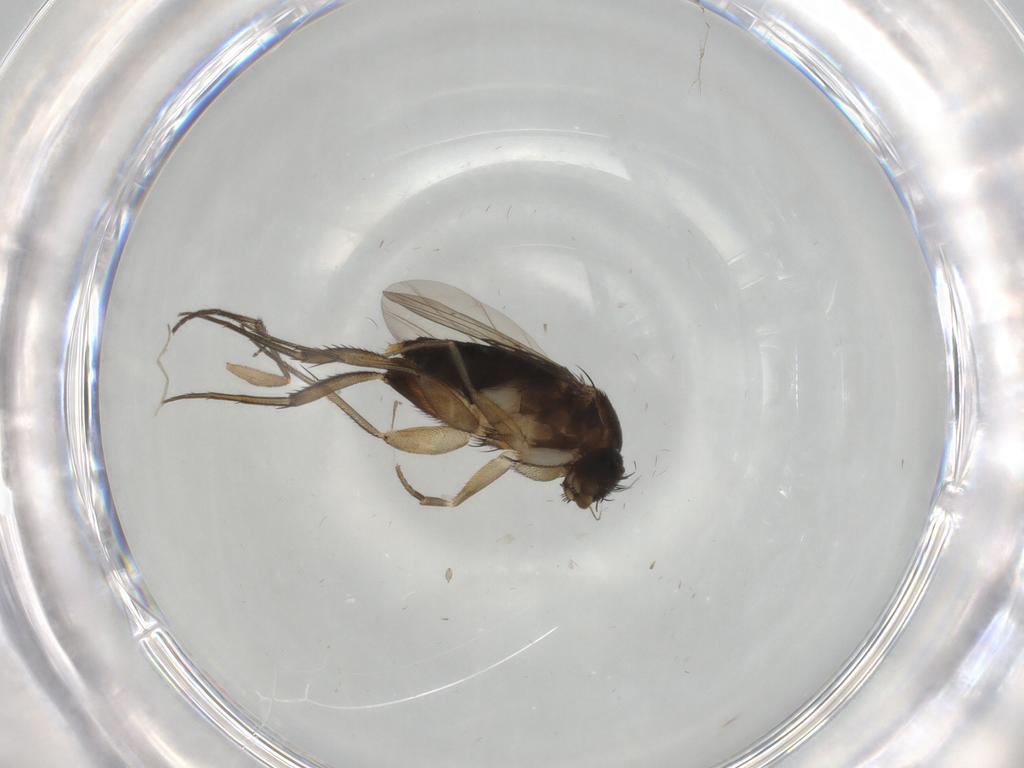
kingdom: Animalia
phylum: Arthropoda
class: Insecta
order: Diptera
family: Phoridae
